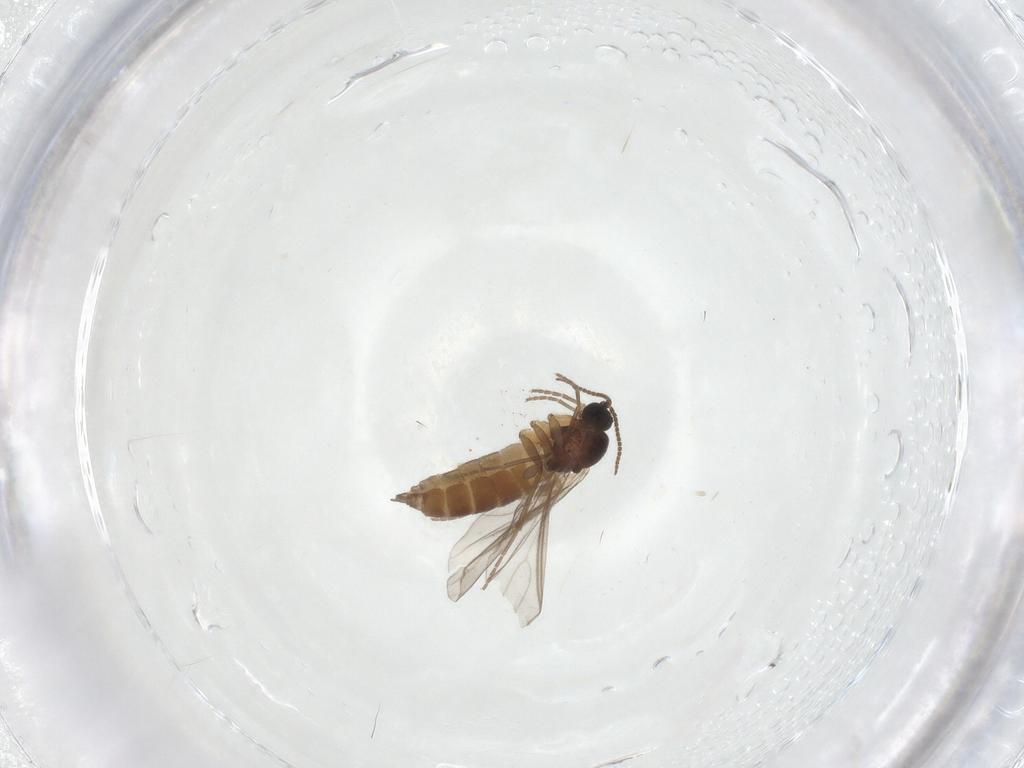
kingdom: Animalia
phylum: Arthropoda
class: Insecta
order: Diptera
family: Sciaridae
